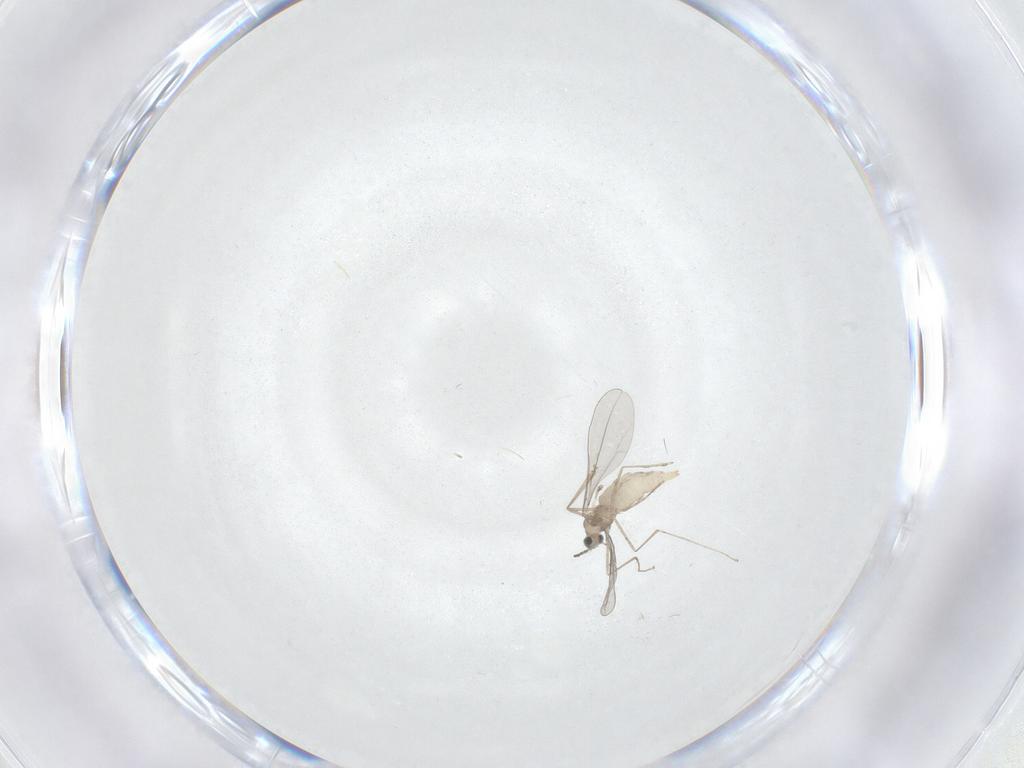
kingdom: Animalia
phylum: Arthropoda
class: Insecta
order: Diptera
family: Cecidomyiidae
